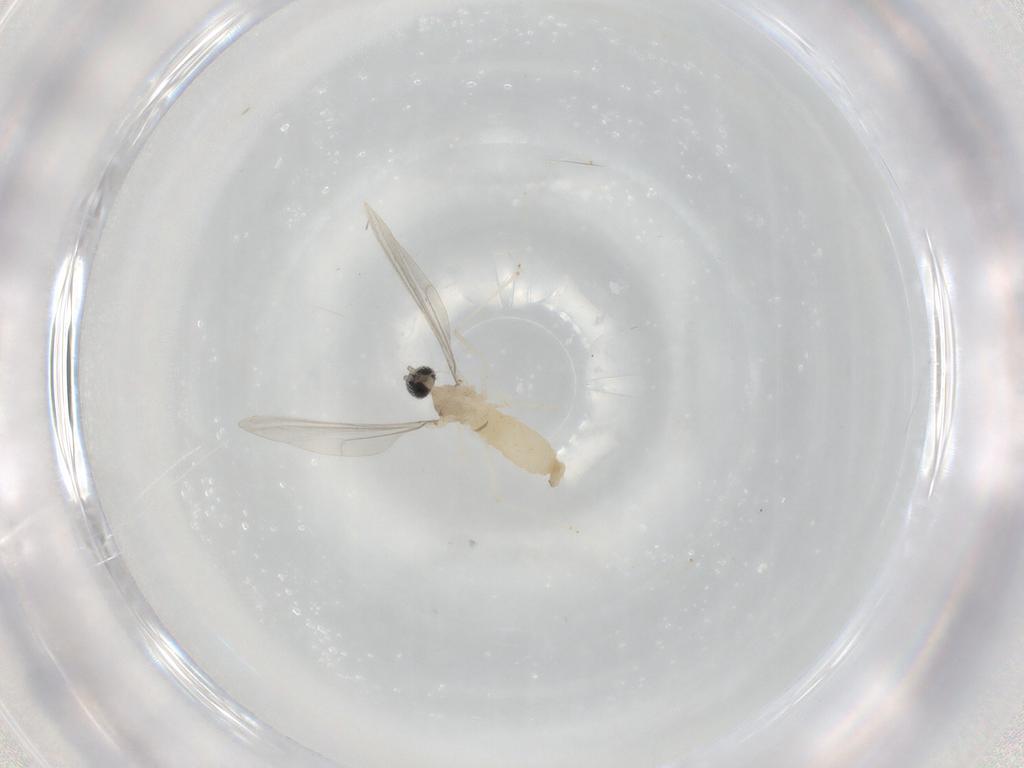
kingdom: Animalia
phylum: Arthropoda
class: Insecta
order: Diptera
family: Cecidomyiidae
